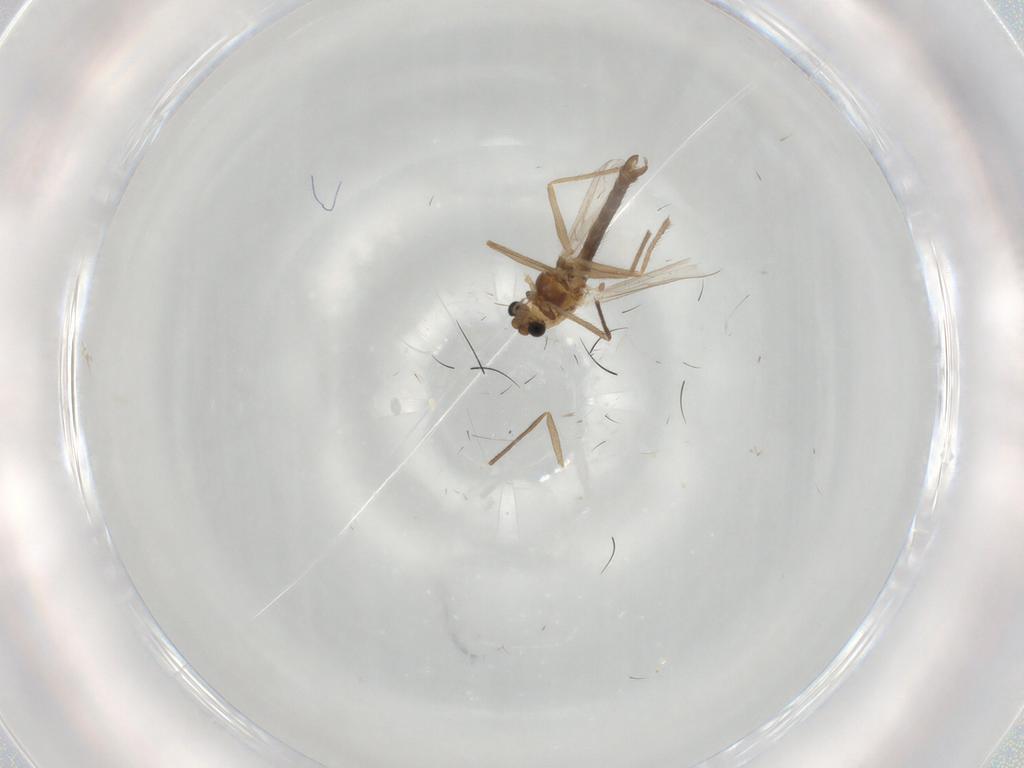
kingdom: Animalia
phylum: Arthropoda
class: Insecta
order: Diptera
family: Chironomidae
